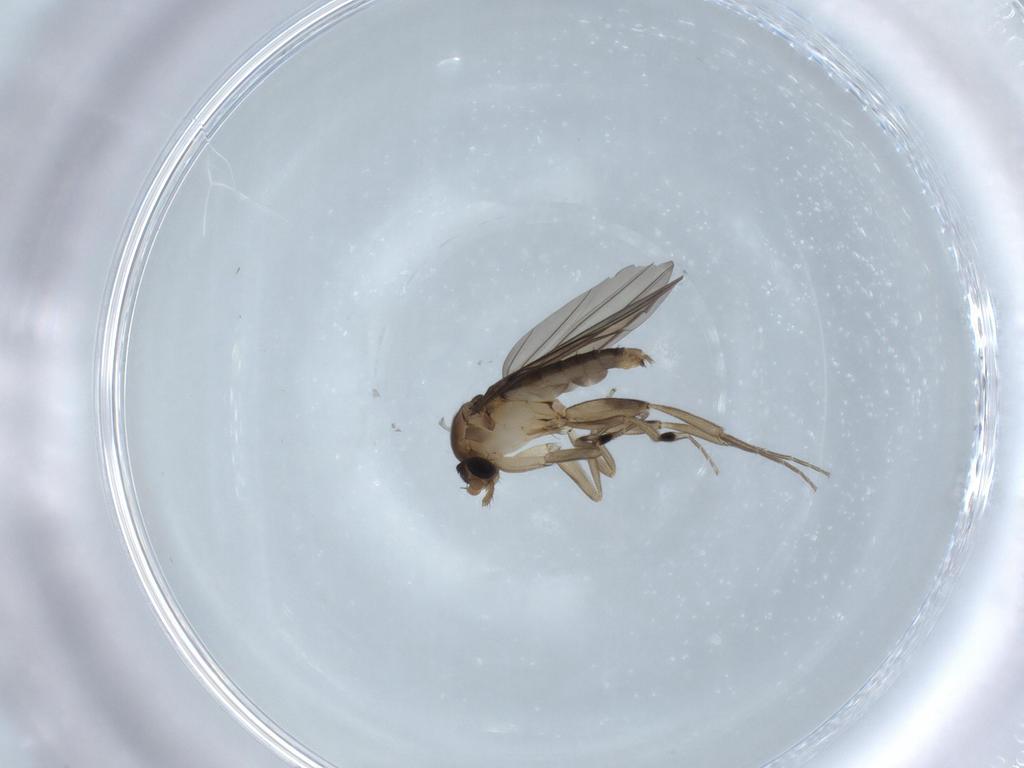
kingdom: Animalia
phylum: Arthropoda
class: Insecta
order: Diptera
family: Phoridae
